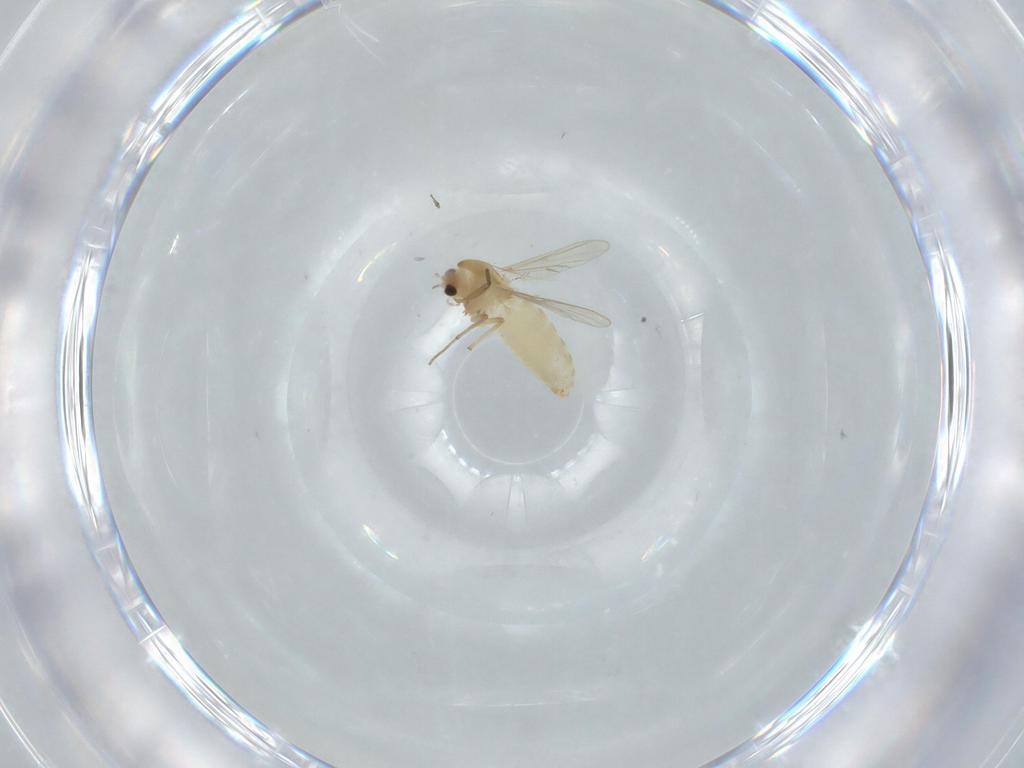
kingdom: Animalia
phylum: Arthropoda
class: Insecta
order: Diptera
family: Chironomidae
